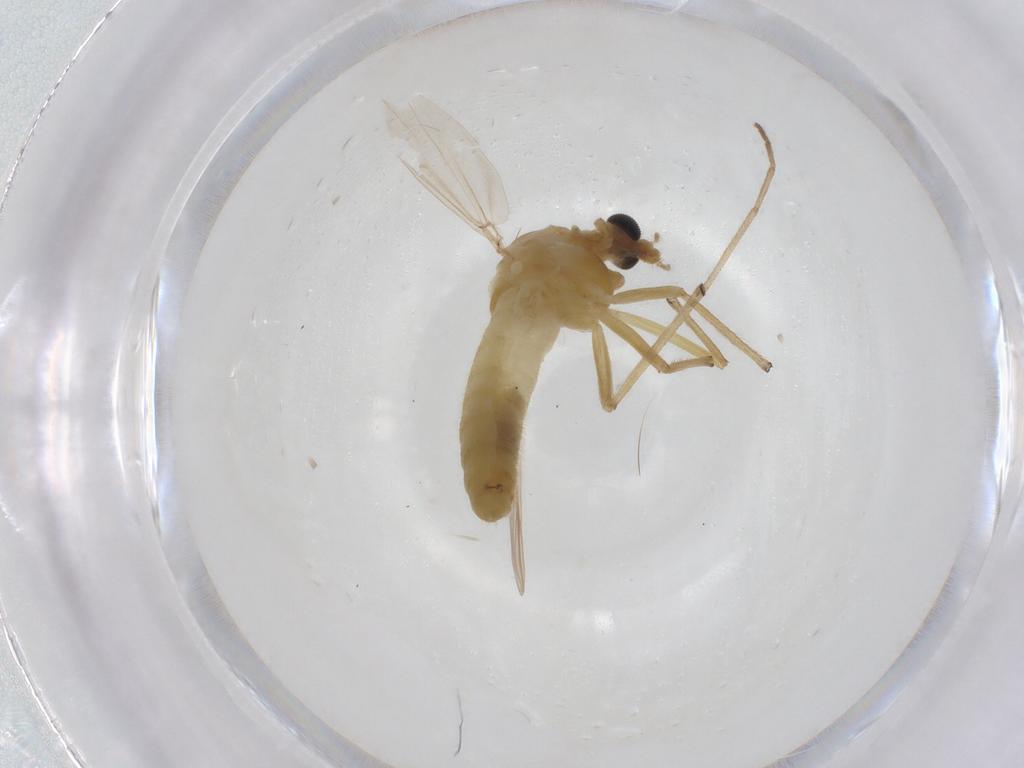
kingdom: Animalia
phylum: Arthropoda
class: Insecta
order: Diptera
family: Chironomidae
